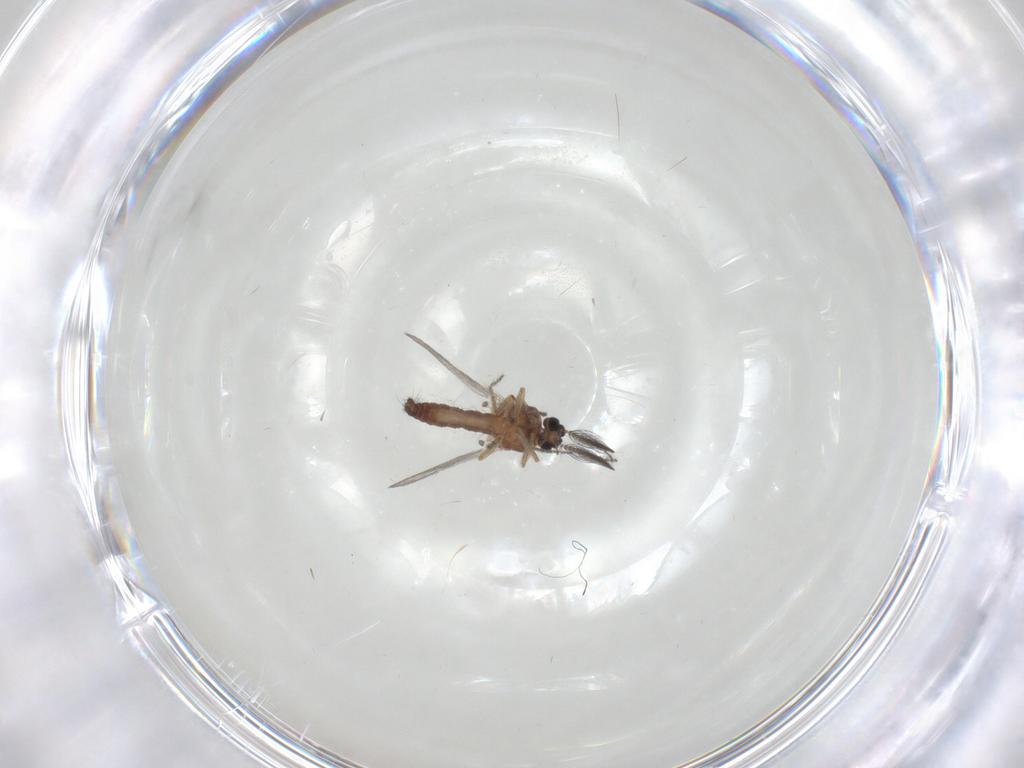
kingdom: Animalia
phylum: Arthropoda
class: Insecta
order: Diptera
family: Ceratopogonidae
